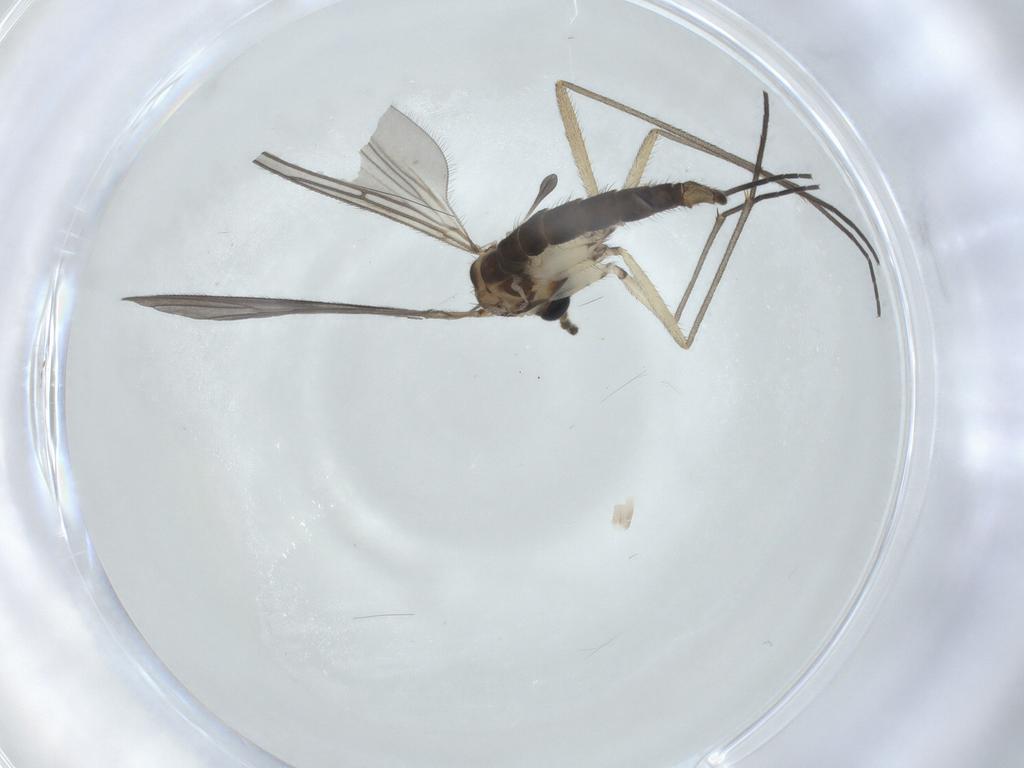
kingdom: Animalia
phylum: Arthropoda
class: Insecta
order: Diptera
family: Sciaridae
